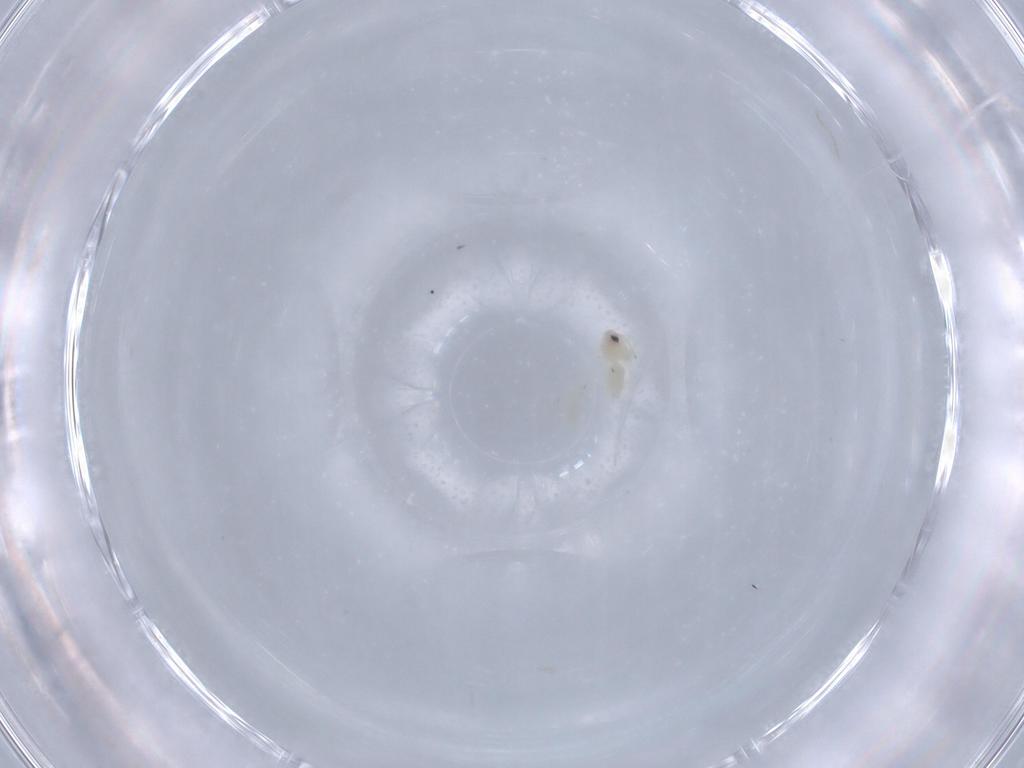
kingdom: Animalia
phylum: Arthropoda
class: Insecta
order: Hemiptera
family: Aleyrodidae
